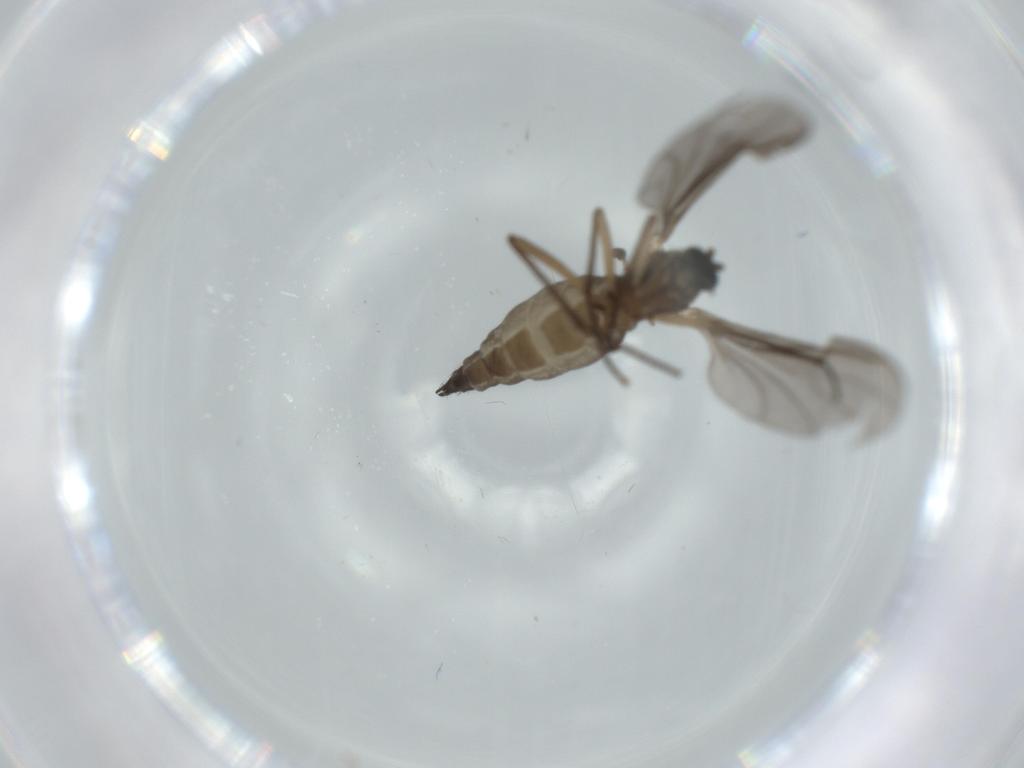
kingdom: Animalia
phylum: Arthropoda
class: Insecta
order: Diptera
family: Sciaridae
